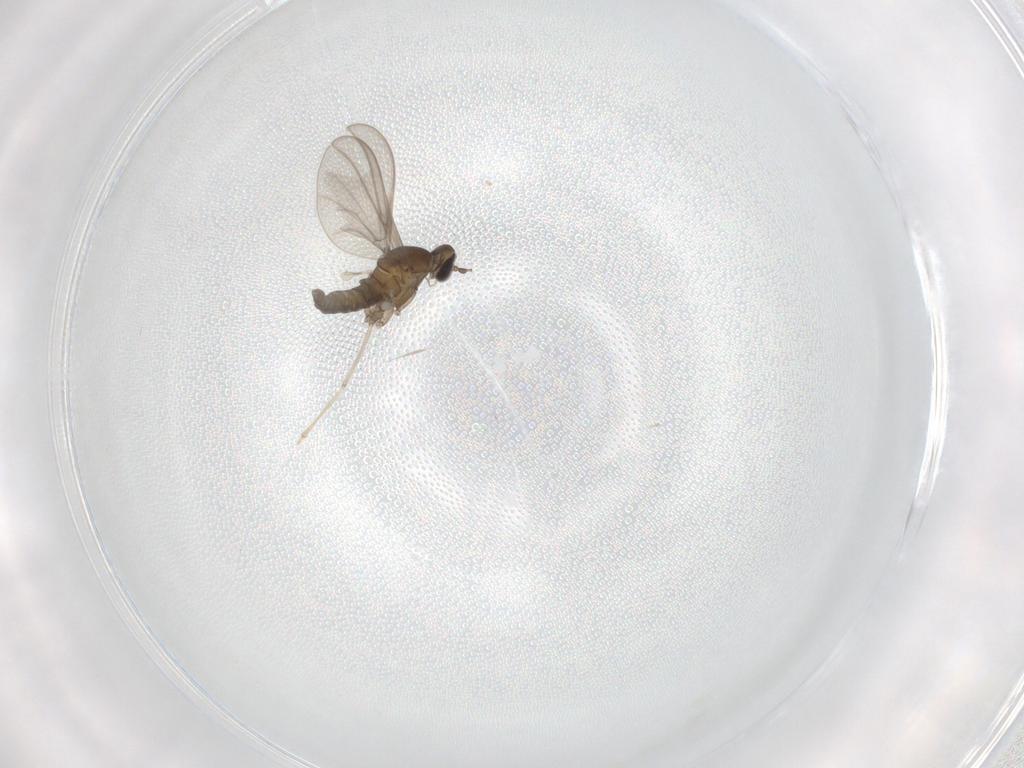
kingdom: Animalia
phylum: Arthropoda
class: Insecta
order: Diptera
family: Cecidomyiidae
